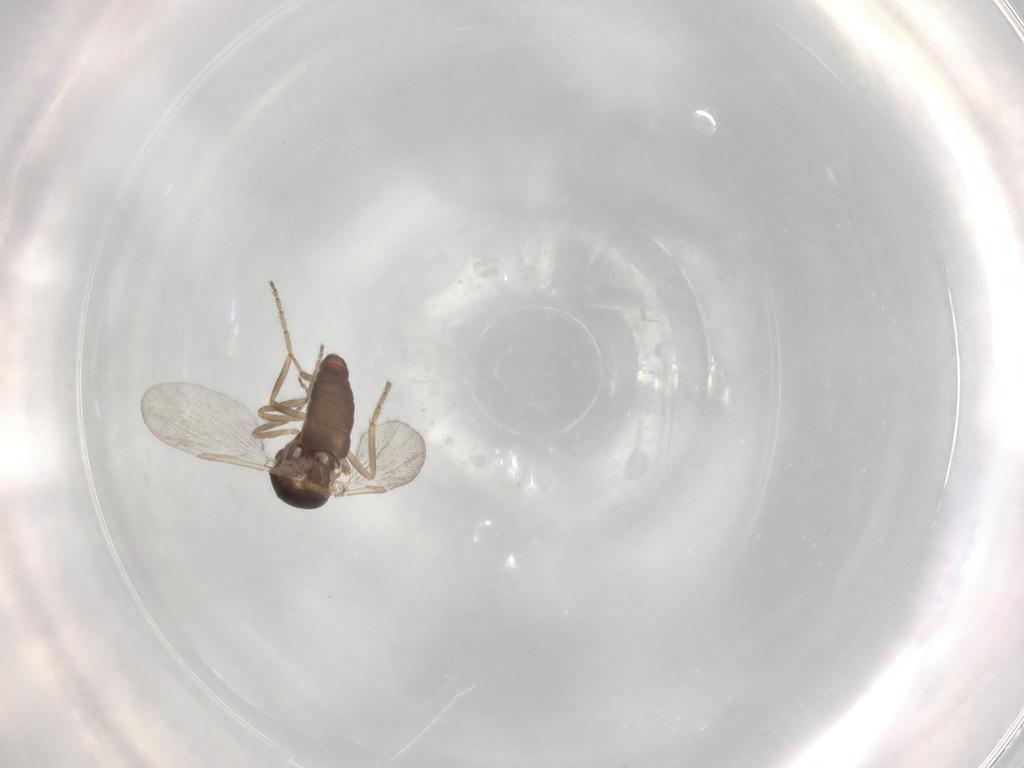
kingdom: Animalia
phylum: Arthropoda
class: Insecta
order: Diptera
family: Ceratopogonidae
